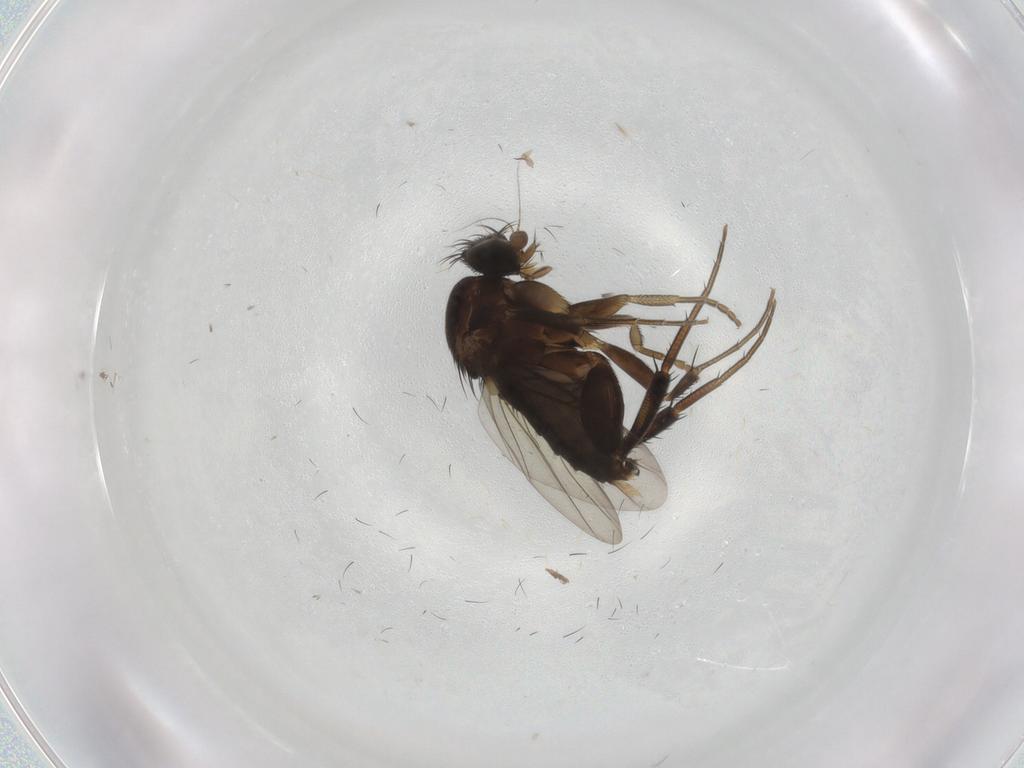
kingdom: Animalia
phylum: Arthropoda
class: Insecta
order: Diptera
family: Phoridae
